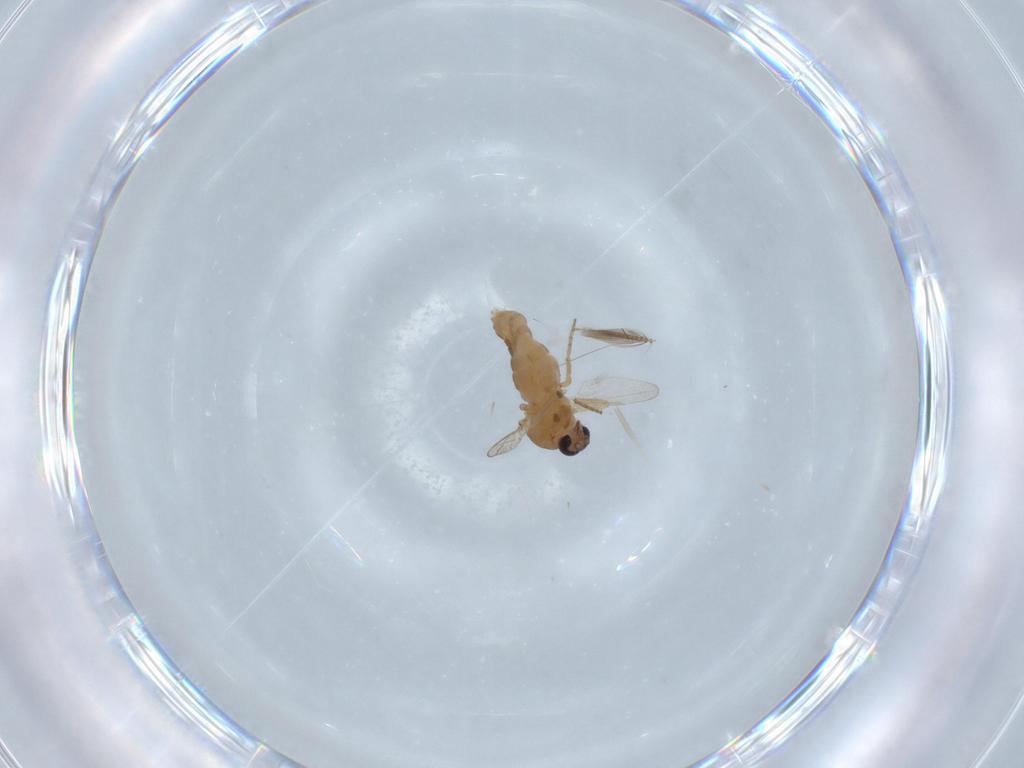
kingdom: Animalia
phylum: Arthropoda
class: Insecta
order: Diptera
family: Ceratopogonidae
